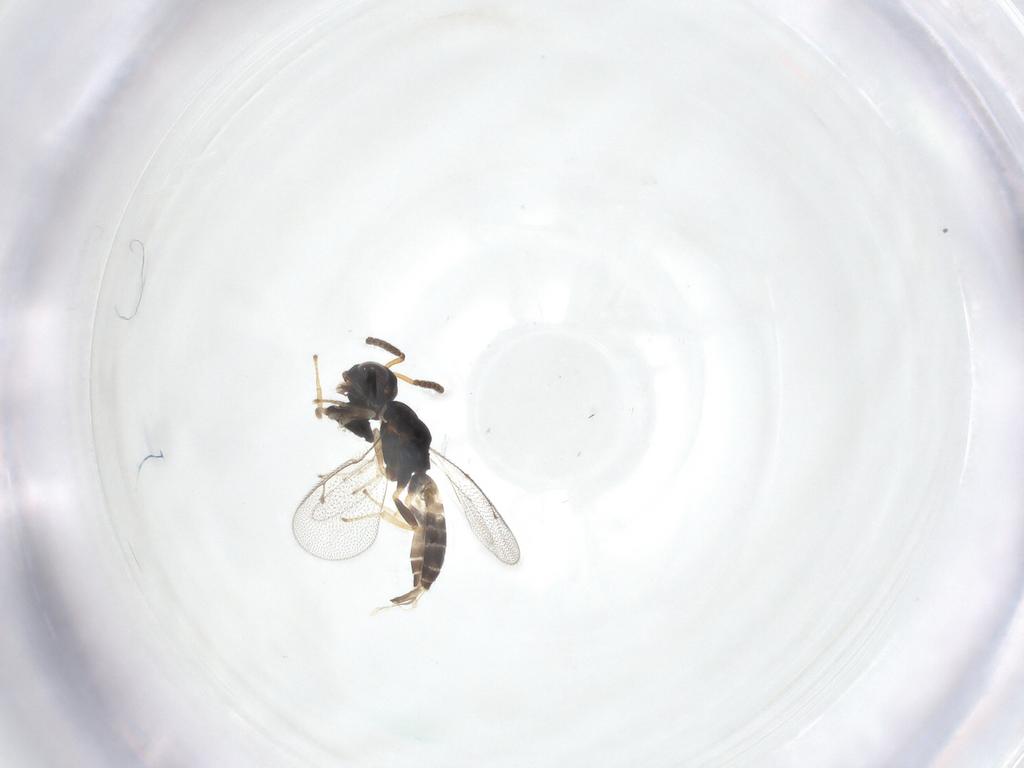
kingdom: Animalia
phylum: Arthropoda
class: Insecta
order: Hymenoptera
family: Pteromalidae
